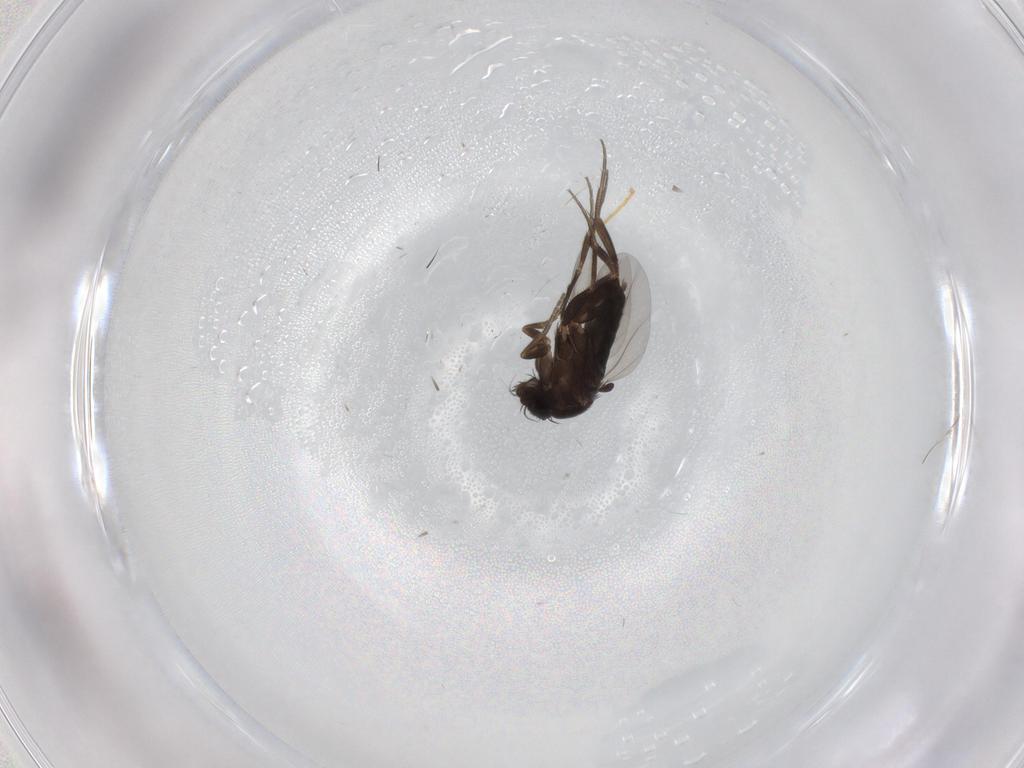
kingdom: Animalia
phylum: Arthropoda
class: Insecta
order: Diptera
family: Phoridae
